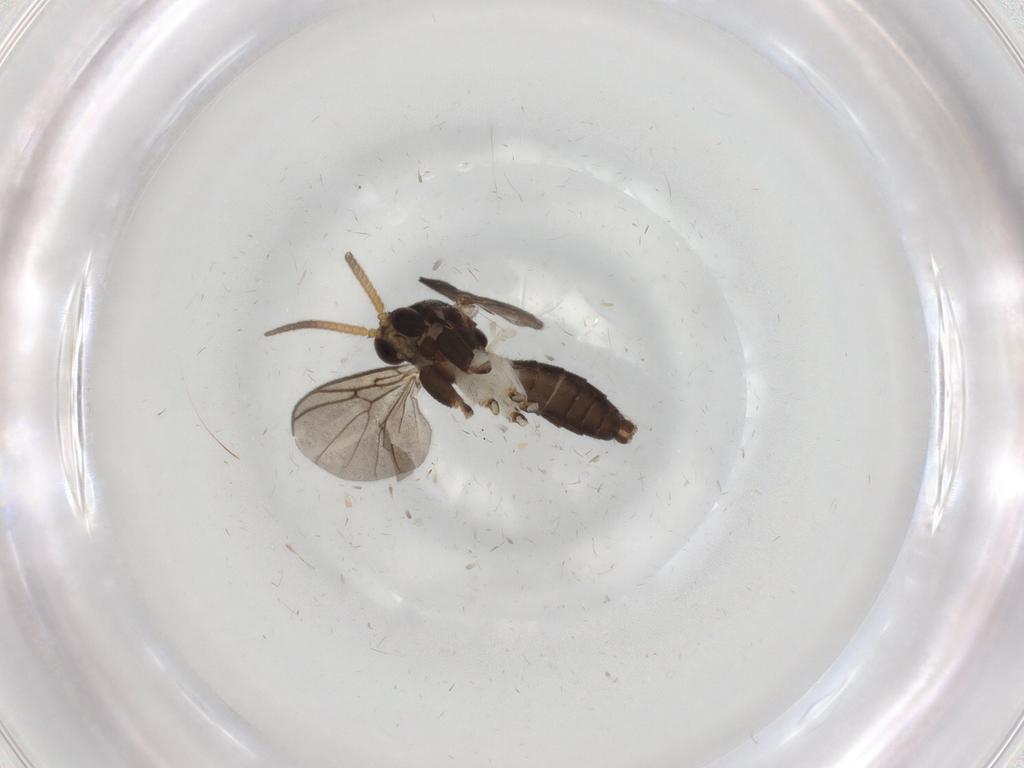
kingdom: Animalia
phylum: Arthropoda
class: Insecta
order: Diptera
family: Mycetophilidae
